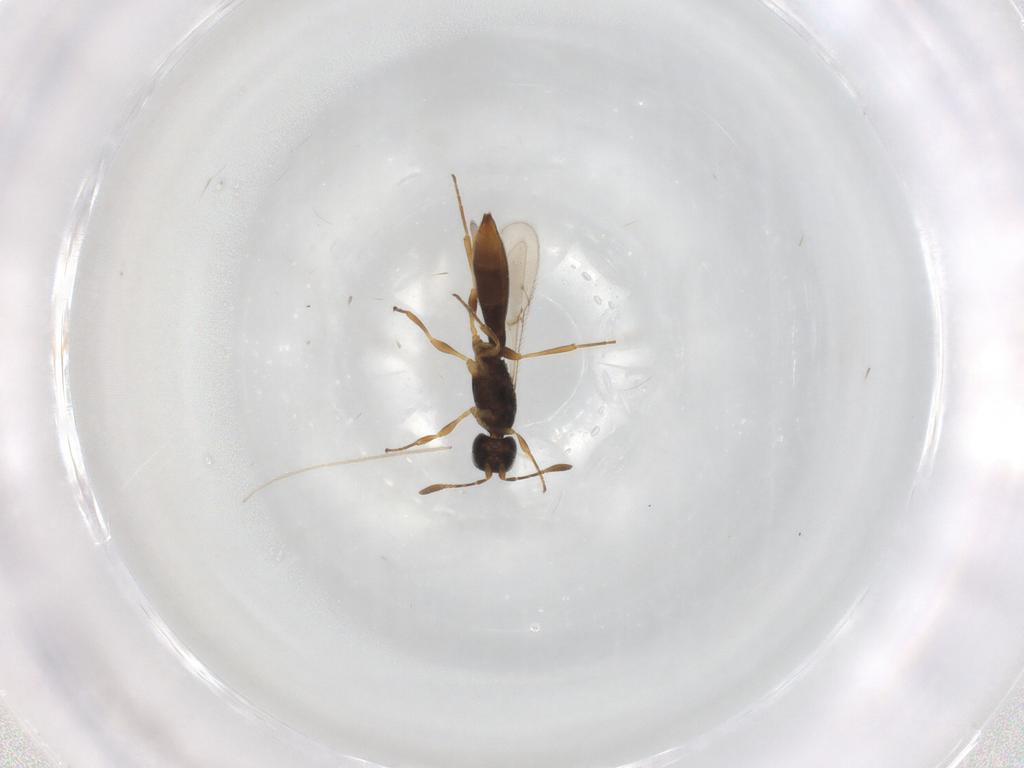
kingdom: Animalia
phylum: Arthropoda
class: Insecta
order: Hymenoptera
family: Scelionidae
